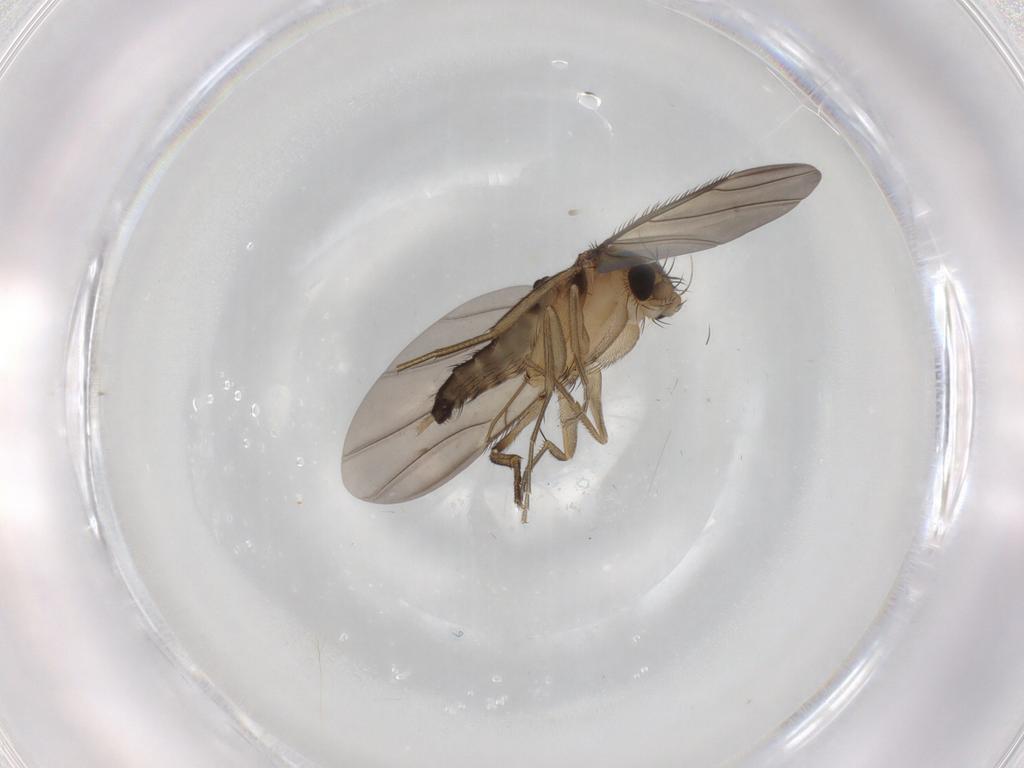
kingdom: Animalia
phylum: Arthropoda
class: Insecta
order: Diptera
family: Phoridae
